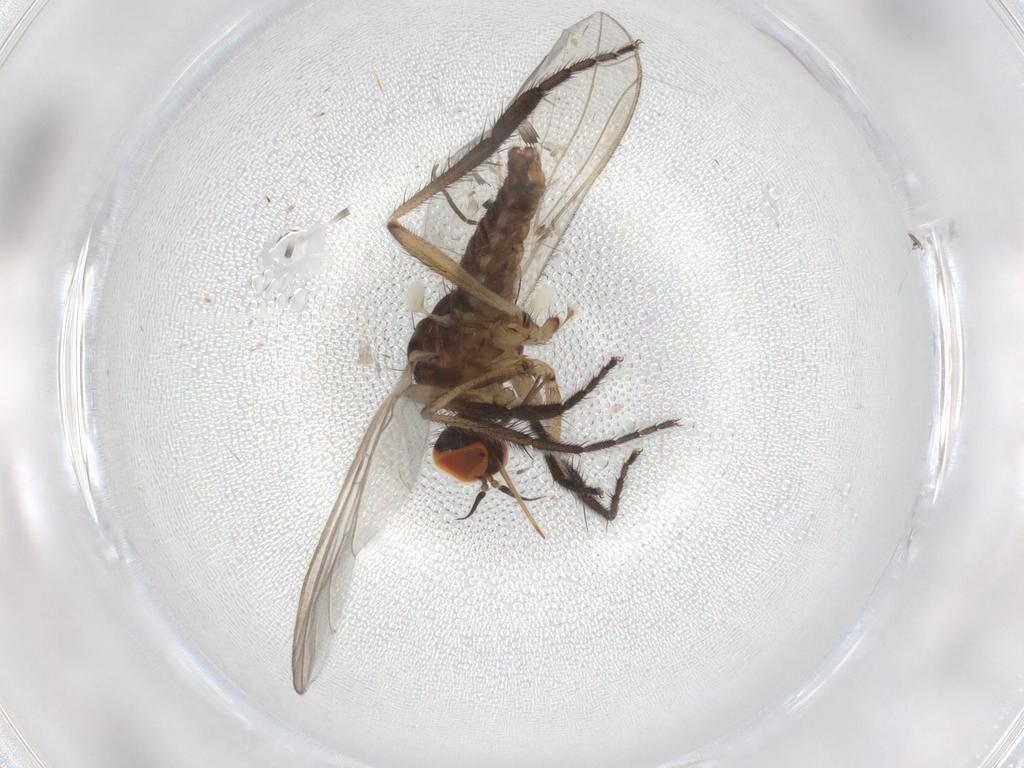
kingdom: Animalia
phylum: Arthropoda
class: Insecta
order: Diptera
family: Empididae
